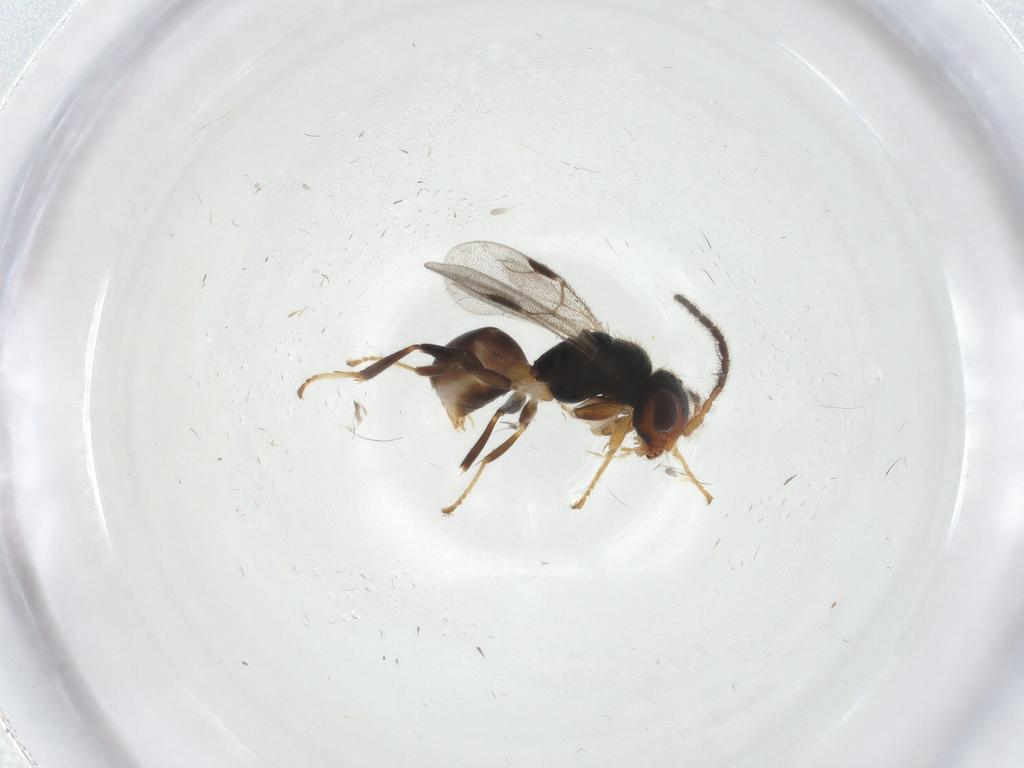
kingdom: Animalia
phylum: Arthropoda
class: Insecta
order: Hymenoptera
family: Dryinidae
